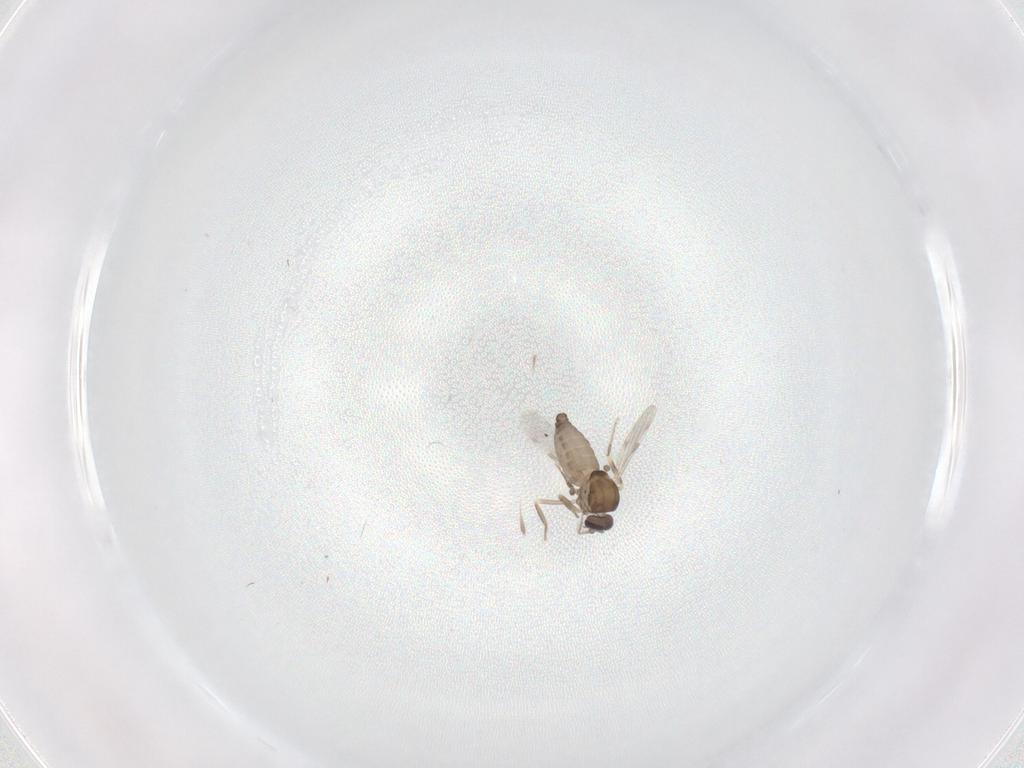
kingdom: Animalia
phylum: Arthropoda
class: Insecta
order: Diptera
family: Ceratopogonidae
